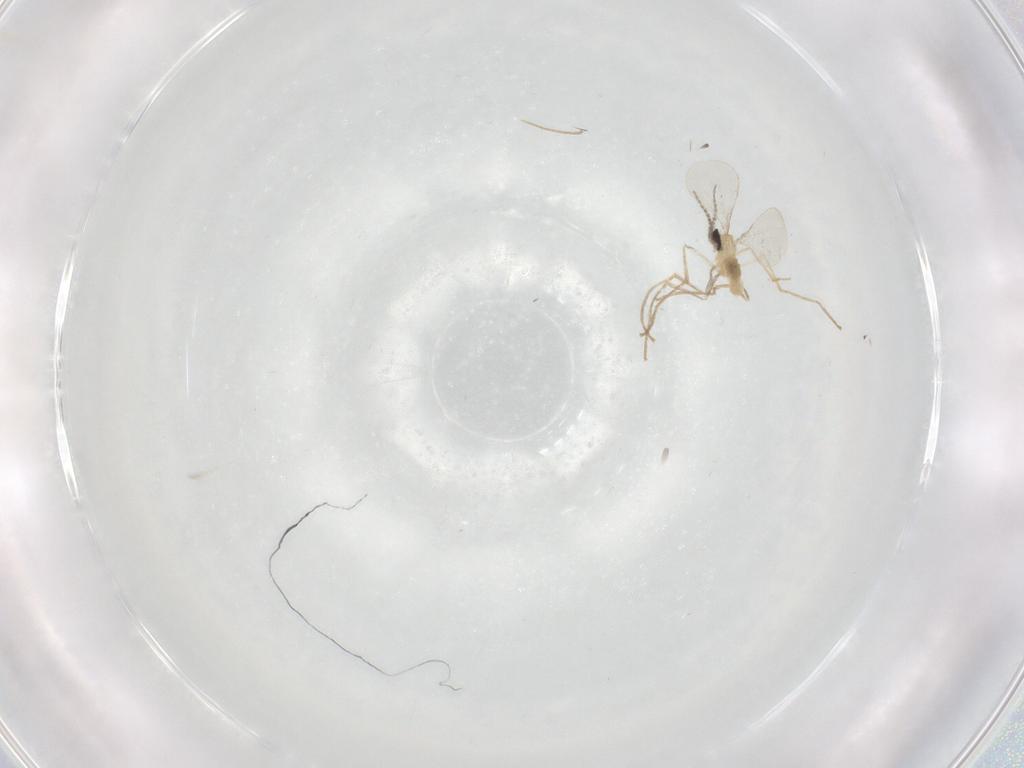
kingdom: Animalia
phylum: Arthropoda
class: Insecta
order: Diptera
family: Cecidomyiidae
